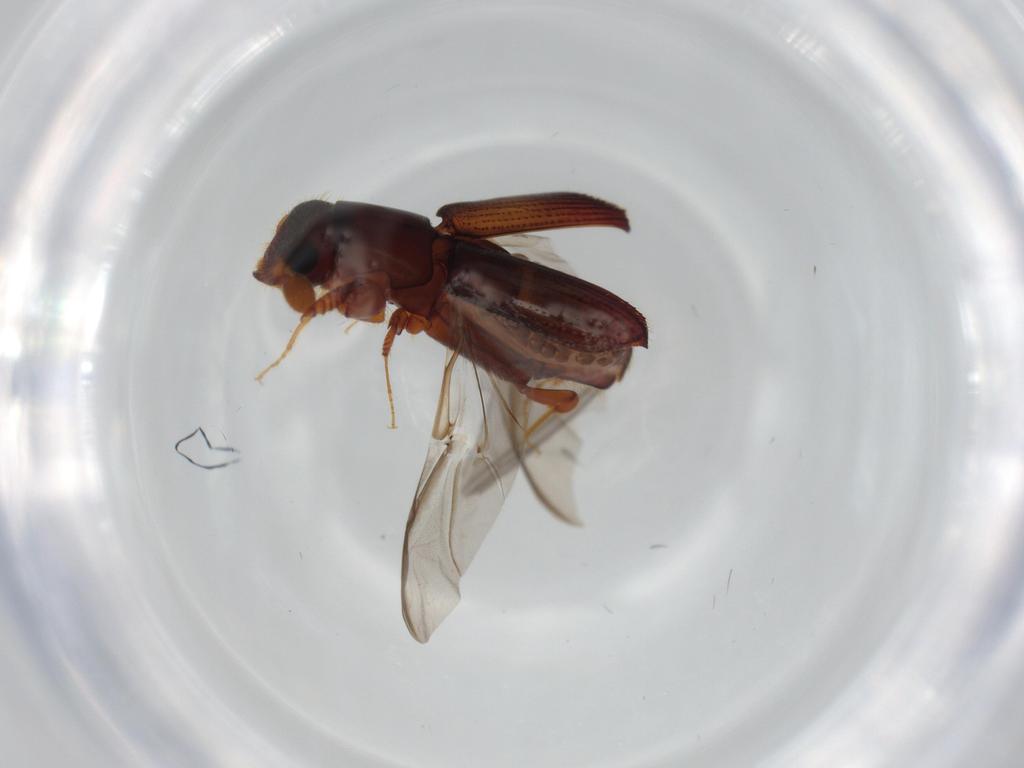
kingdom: Animalia
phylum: Arthropoda
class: Insecta
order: Coleoptera
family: Curculionidae
